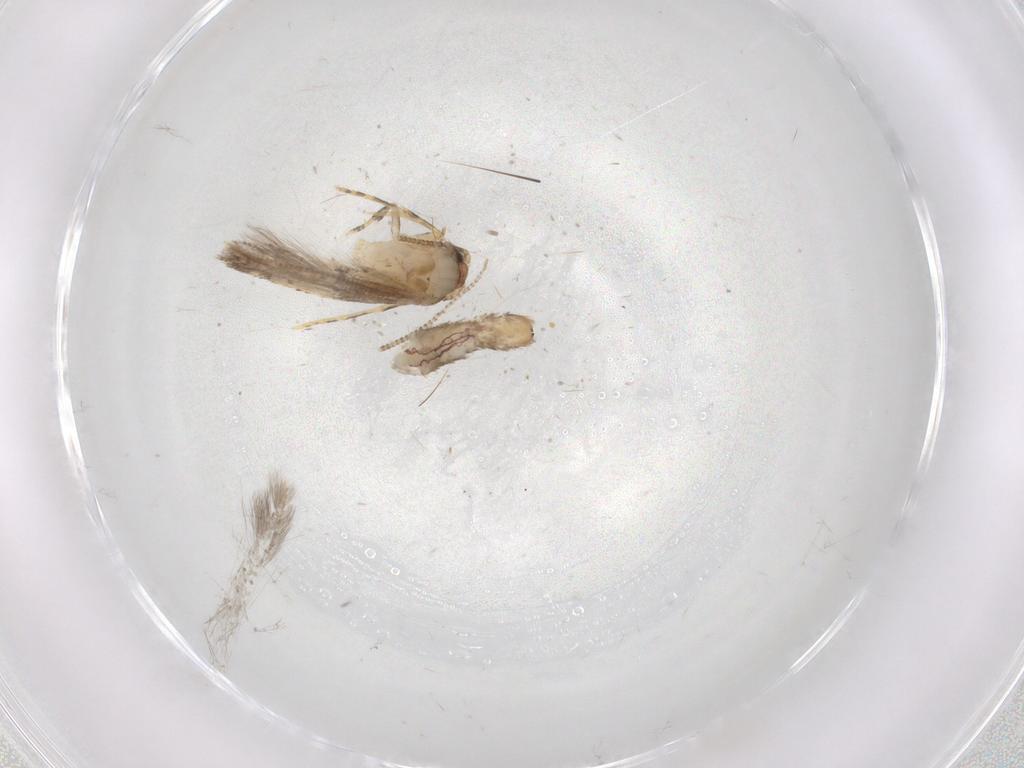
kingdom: Animalia
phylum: Arthropoda
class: Insecta
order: Lepidoptera
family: Tineidae
